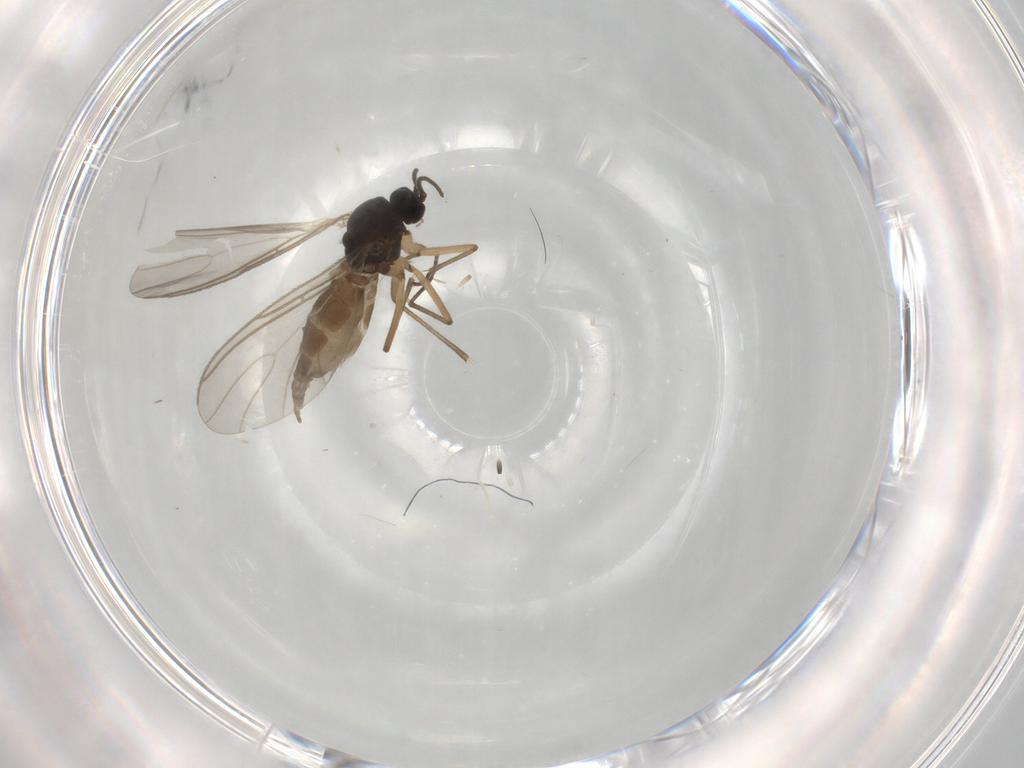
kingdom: Animalia
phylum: Arthropoda
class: Insecta
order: Diptera
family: Sciaridae
